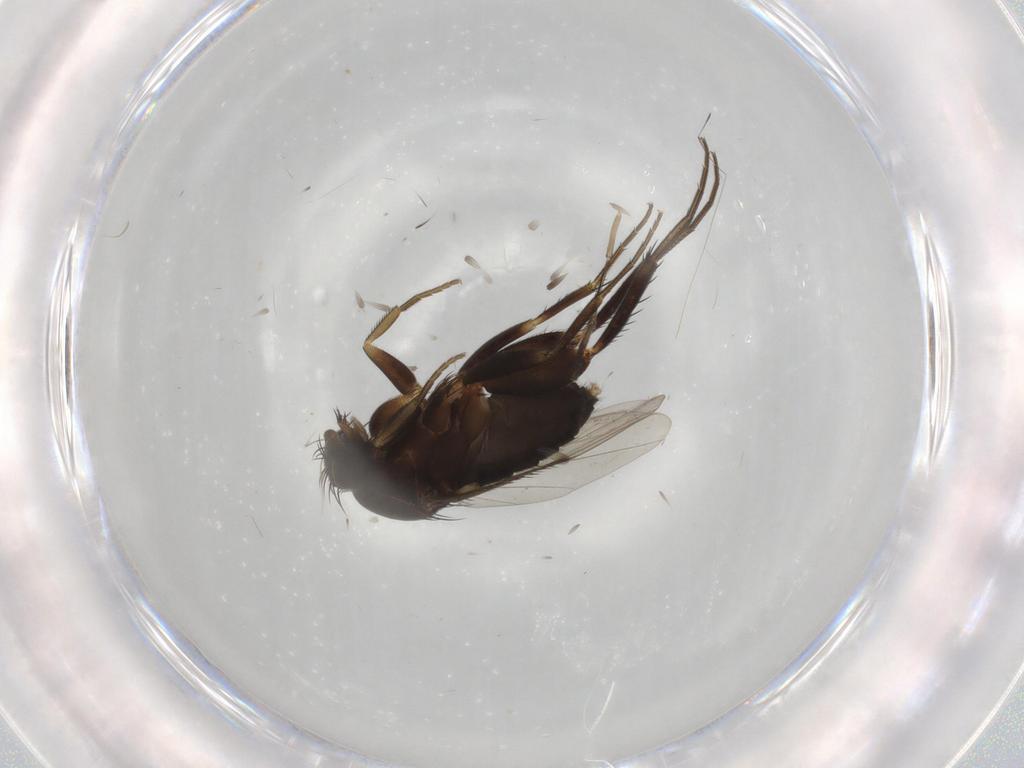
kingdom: Animalia
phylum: Arthropoda
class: Insecta
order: Diptera
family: Phoridae
